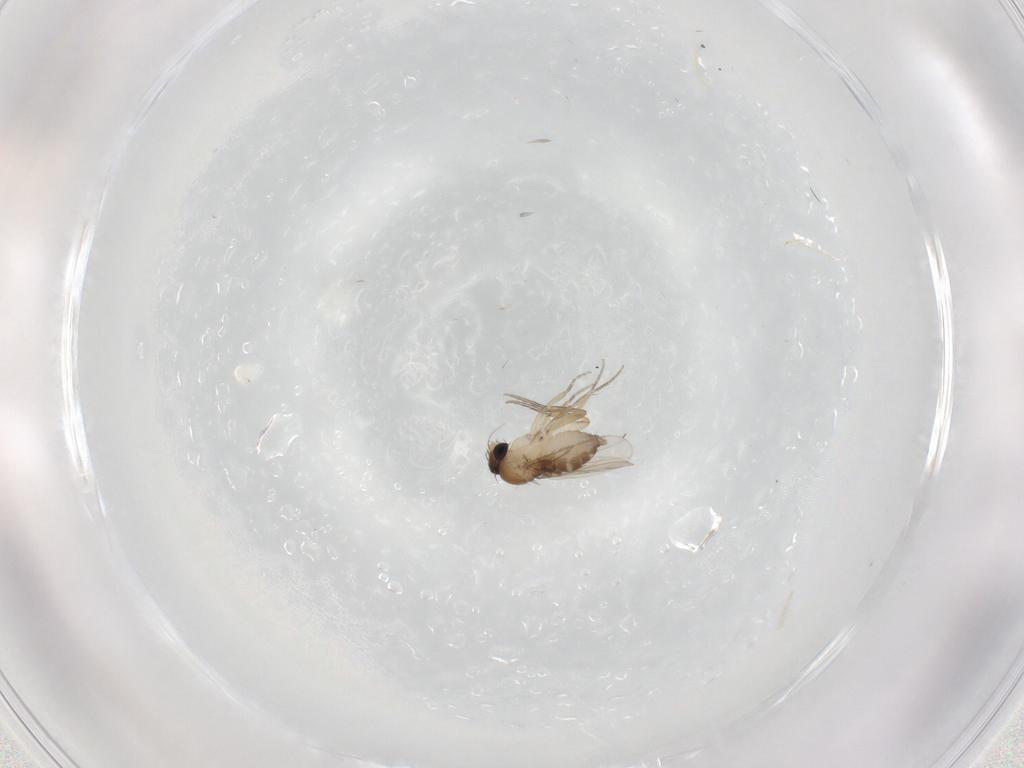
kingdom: Animalia
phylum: Arthropoda
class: Insecta
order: Diptera
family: Phoridae
